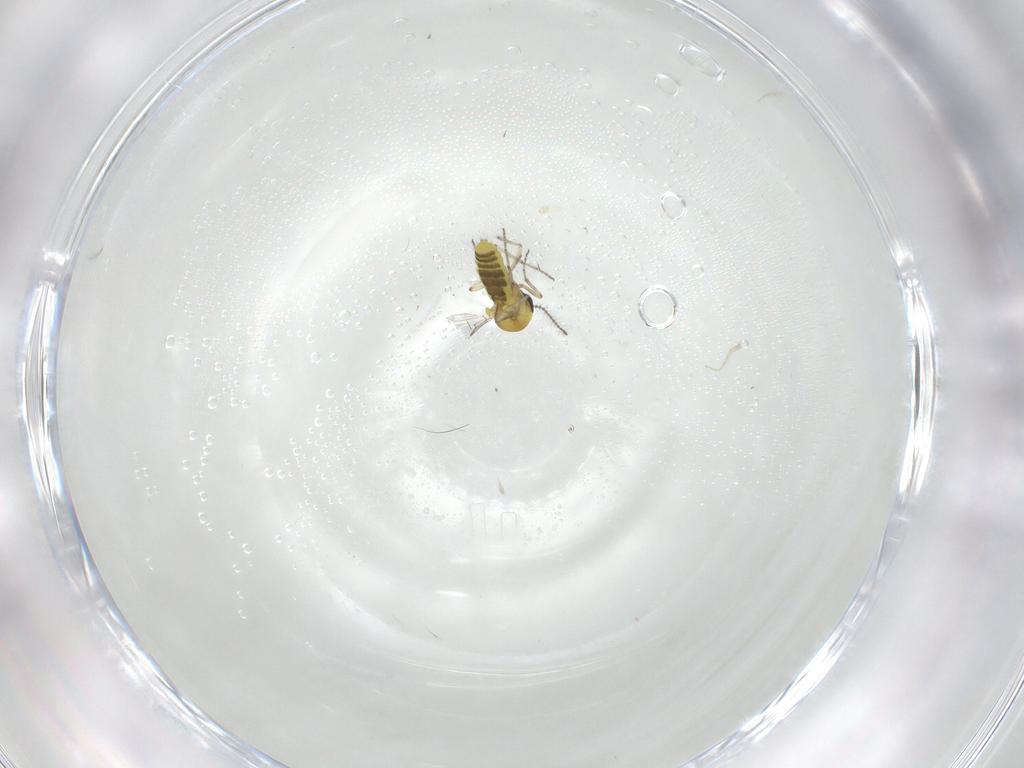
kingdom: Animalia
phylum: Arthropoda
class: Insecta
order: Diptera
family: Ceratopogonidae
